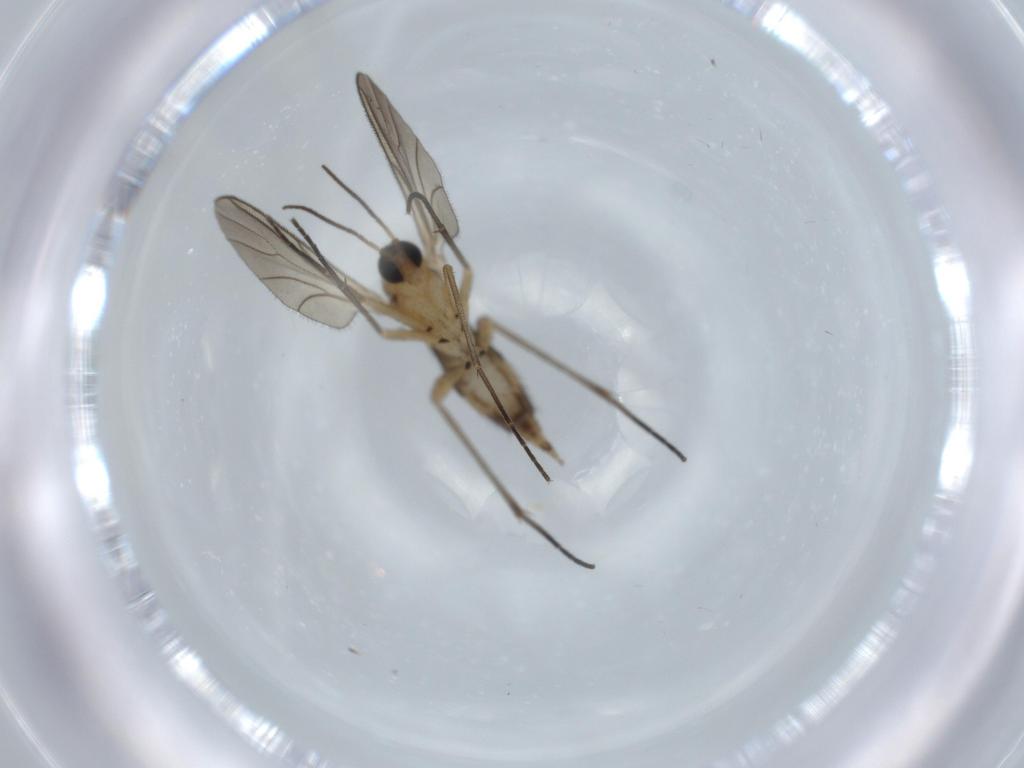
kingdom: Animalia
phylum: Arthropoda
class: Insecta
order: Diptera
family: Sciaridae
